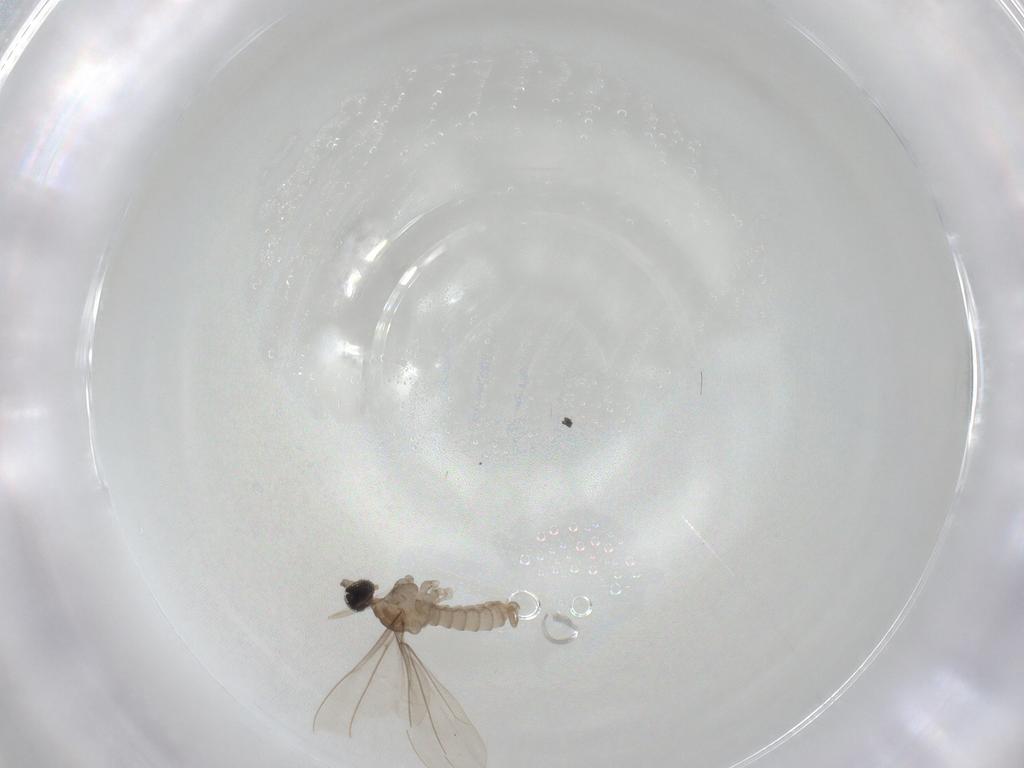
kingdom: Animalia
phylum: Arthropoda
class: Insecta
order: Diptera
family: Cecidomyiidae
